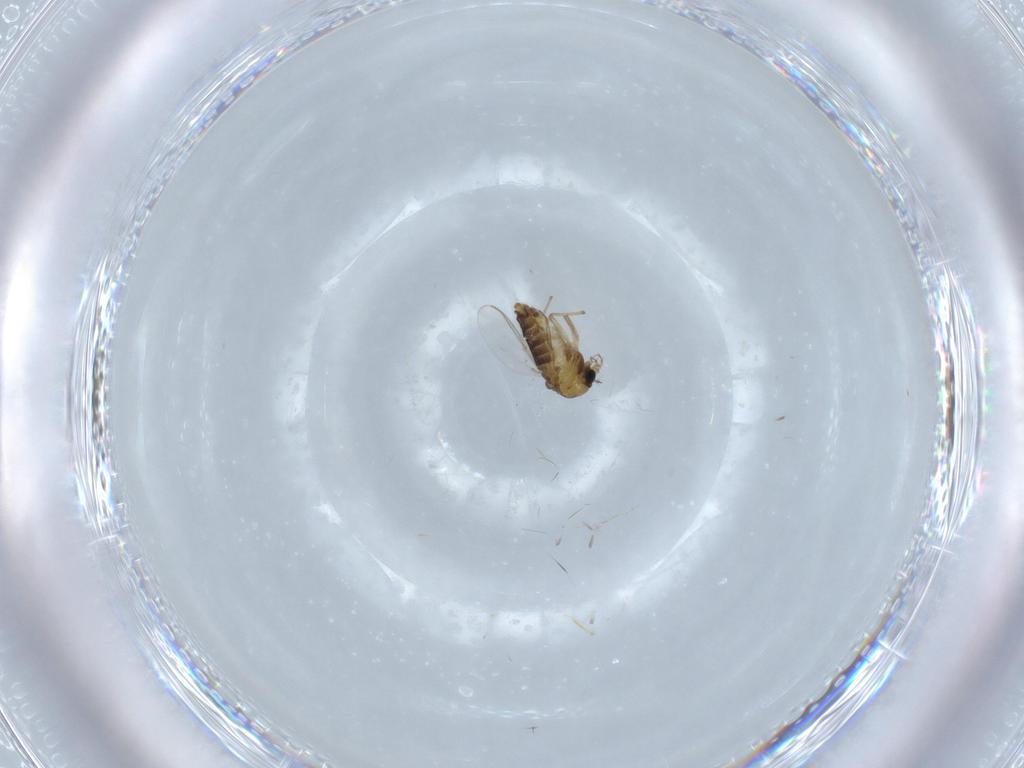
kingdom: Animalia
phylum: Arthropoda
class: Insecta
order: Diptera
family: Chironomidae
